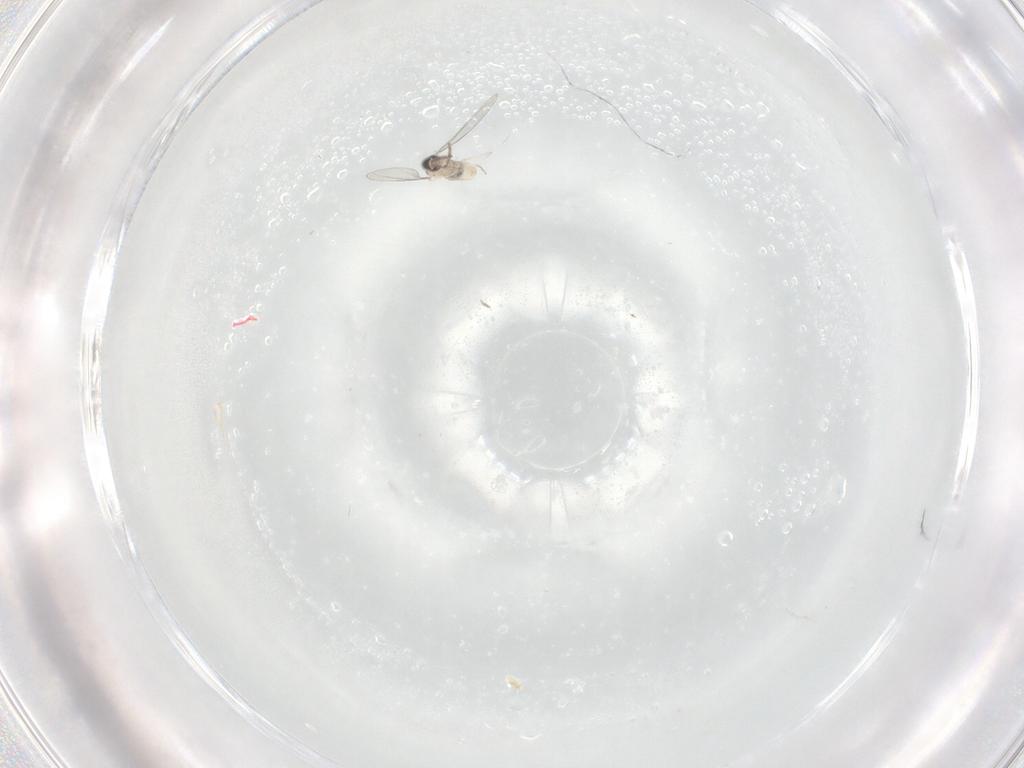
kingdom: Animalia
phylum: Arthropoda
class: Insecta
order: Diptera
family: Cecidomyiidae
